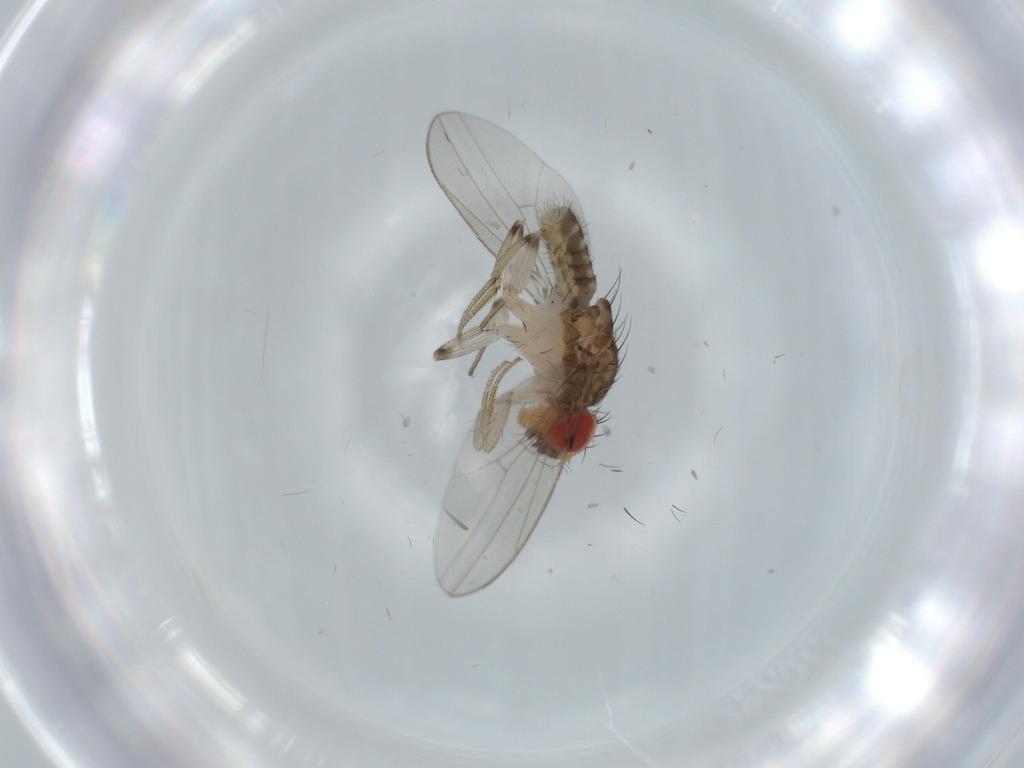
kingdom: Animalia
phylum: Arthropoda
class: Insecta
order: Diptera
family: Drosophilidae
